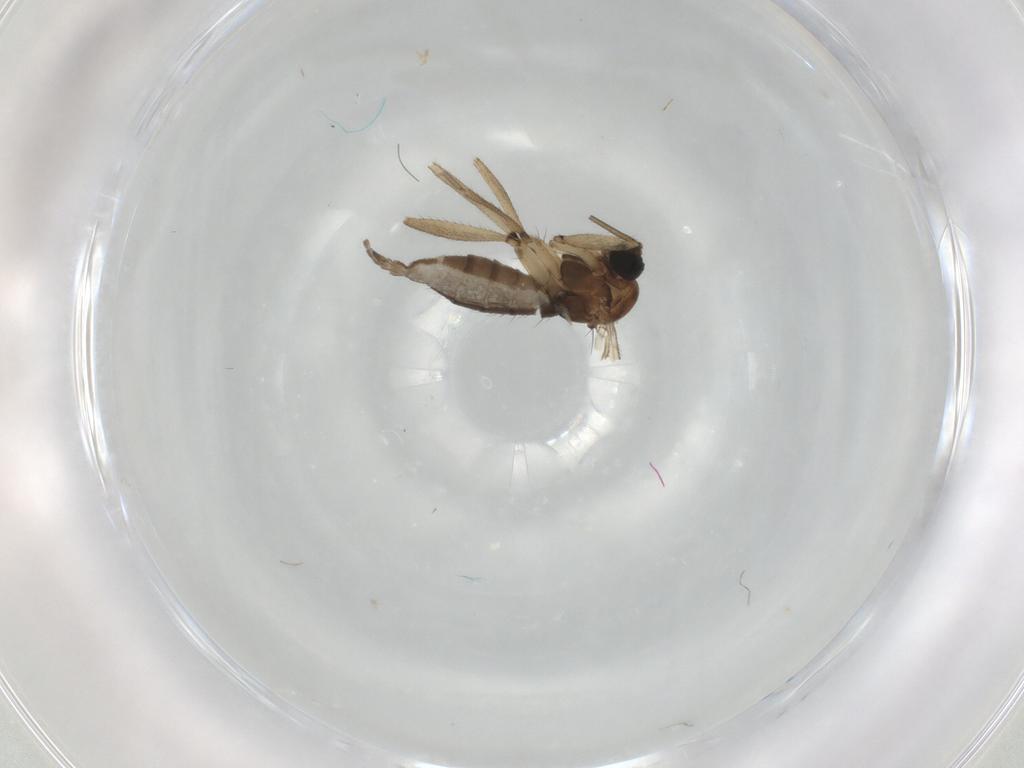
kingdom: Animalia
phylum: Arthropoda
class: Insecta
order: Diptera
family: Sciaridae
